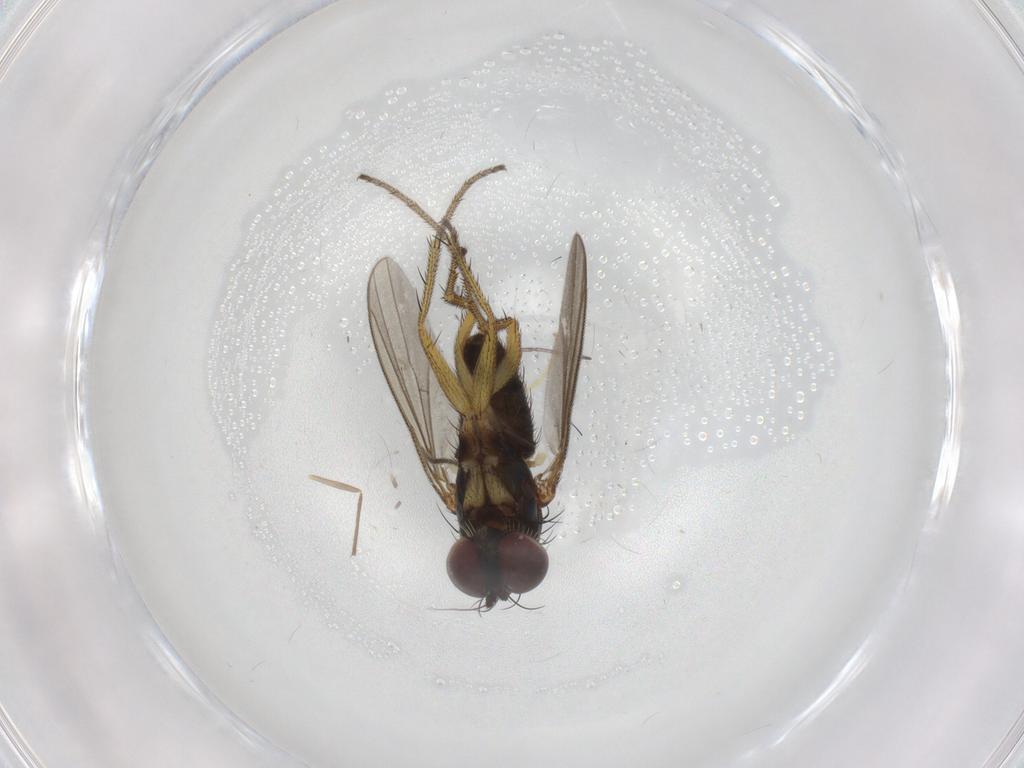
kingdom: Animalia
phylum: Arthropoda
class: Insecta
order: Diptera
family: Chironomidae
